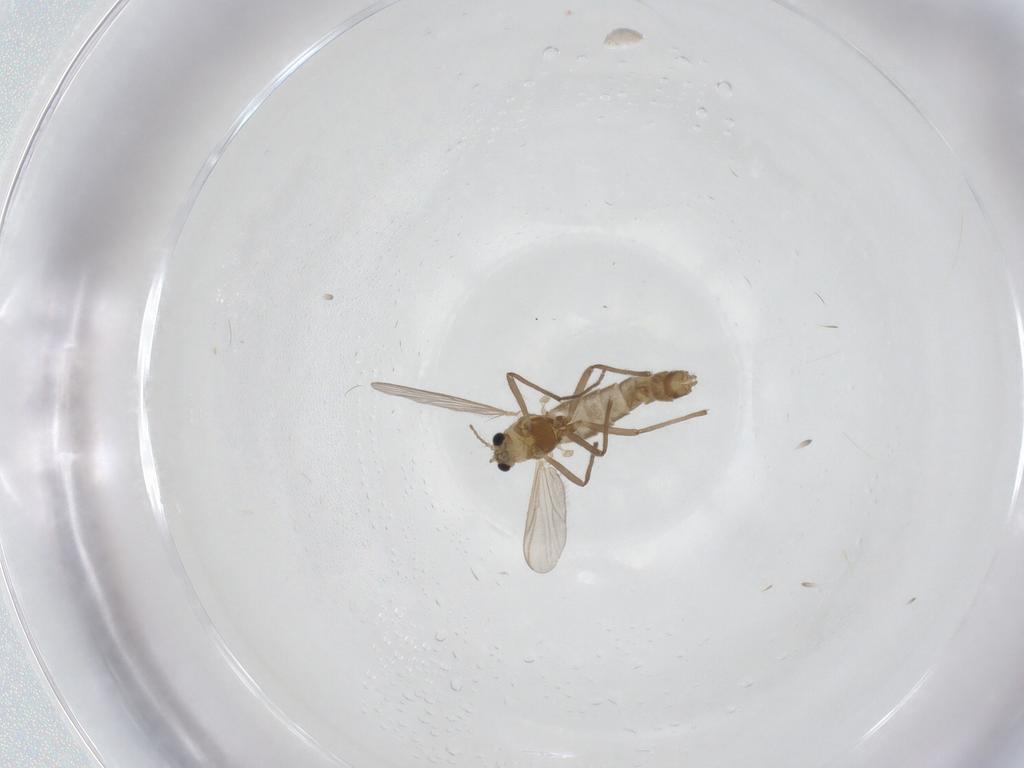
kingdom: Animalia
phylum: Arthropoda
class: Insecta
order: Diptera
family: Chironomidae
